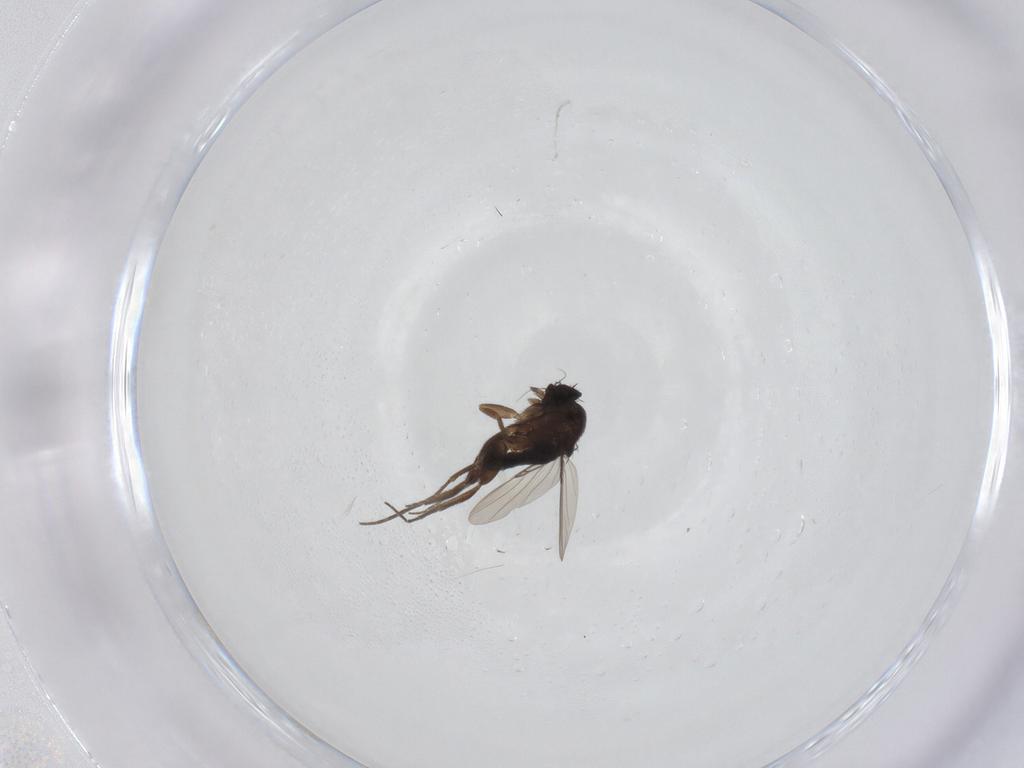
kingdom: Animalia
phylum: Arthropoda
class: Insecta
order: Diptera
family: Phoridae
